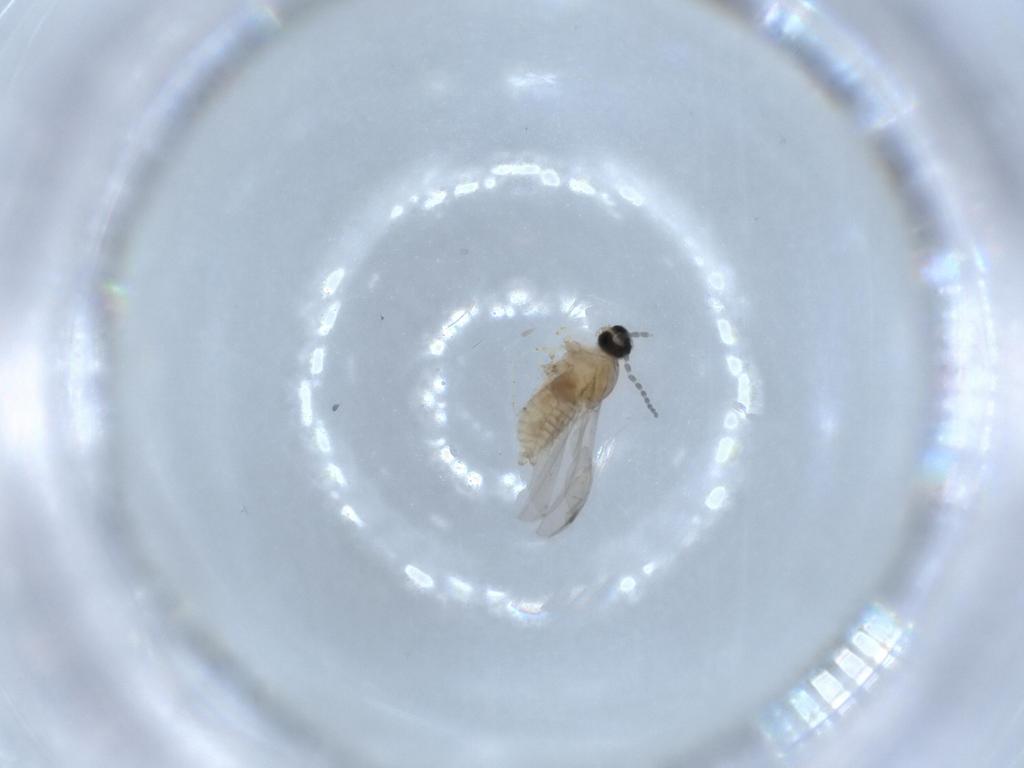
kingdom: Animalia
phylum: Arthropoda
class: Insecta
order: Diptera
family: Cecidomyiidae
